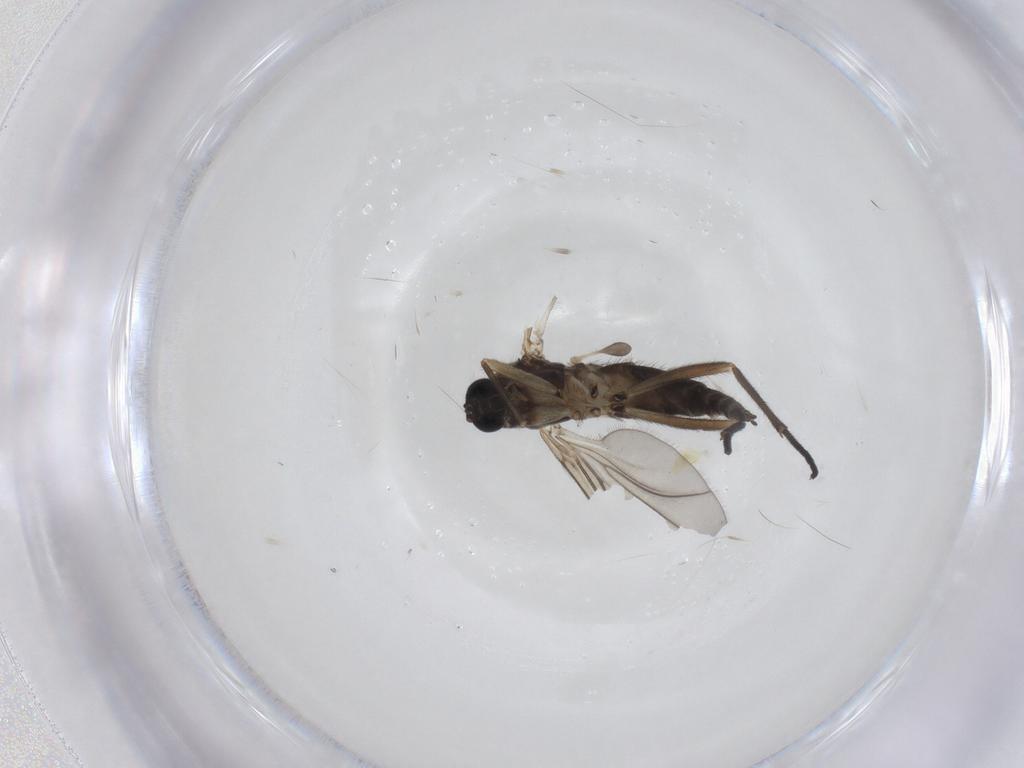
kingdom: Animalia
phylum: Arthropoda
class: Insecta
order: Diptera
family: Sciaridae
